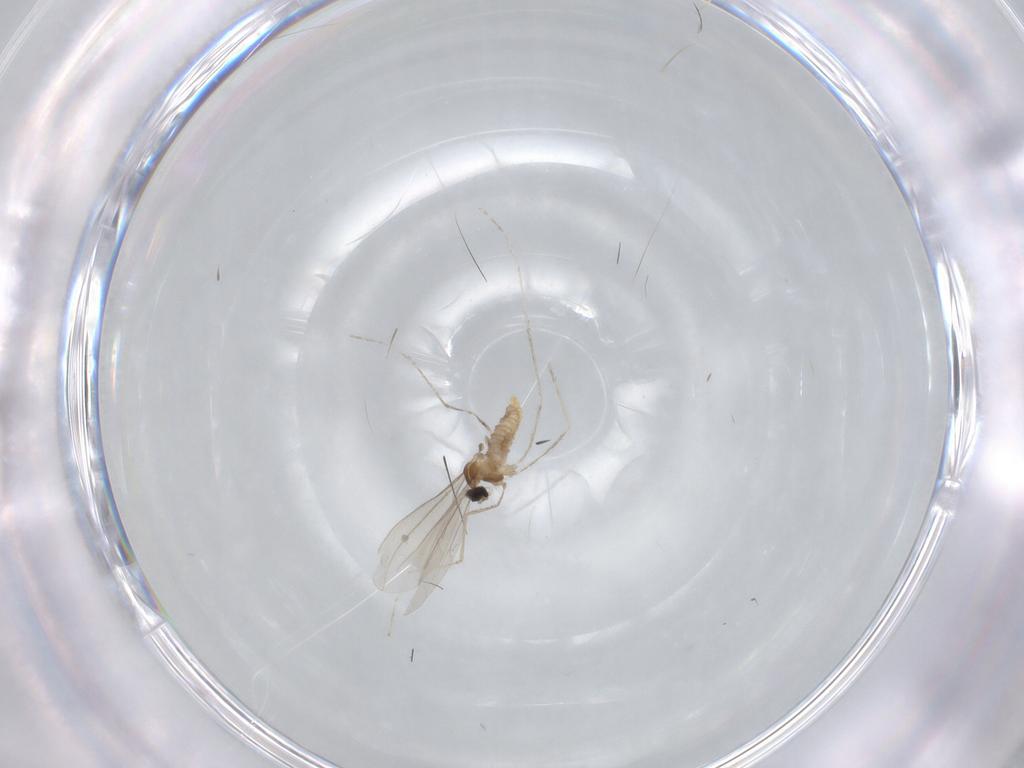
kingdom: Animalia
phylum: Arthropoda
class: Insecta
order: Diptera
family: Cecidomyiidae
